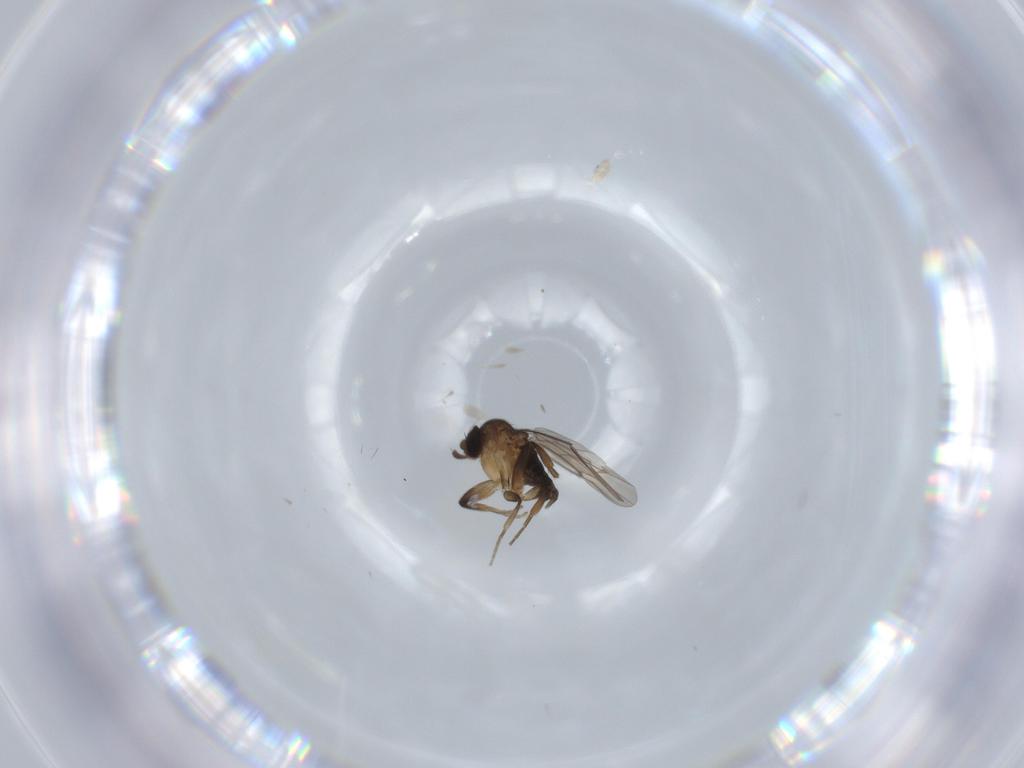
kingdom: Animalia
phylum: Arthropoda
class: Insecta
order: Diptera
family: Phoridae
